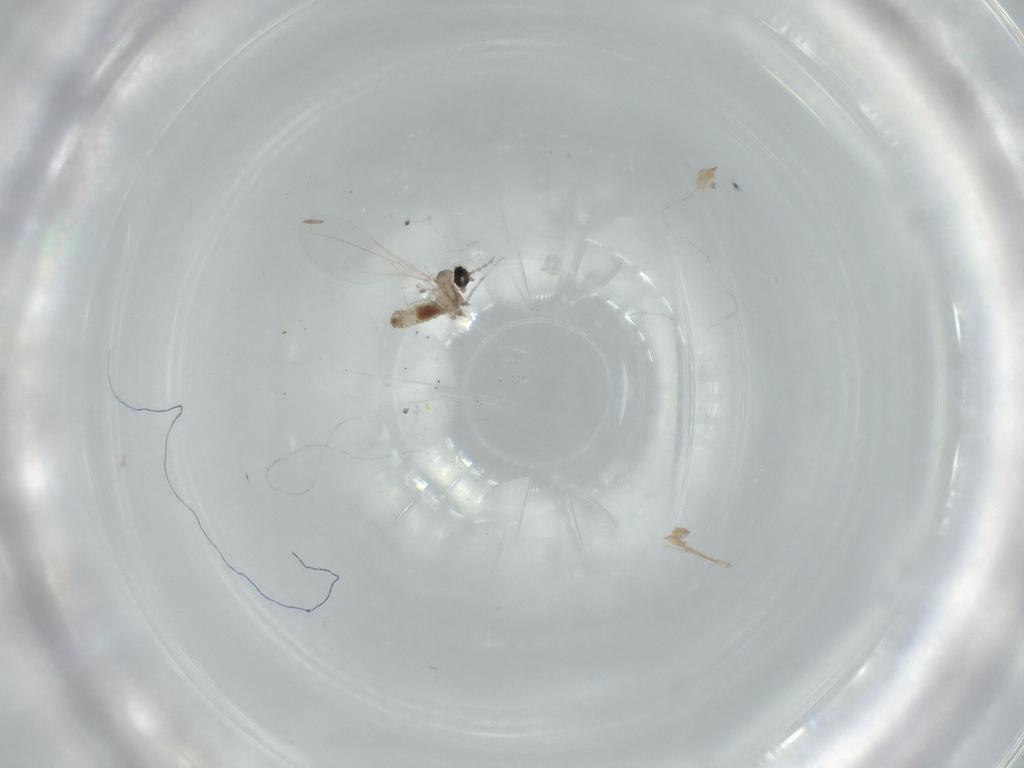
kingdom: Animalia
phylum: Arthropoda
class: Insecta
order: Diptera
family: Cecidomyiidae
